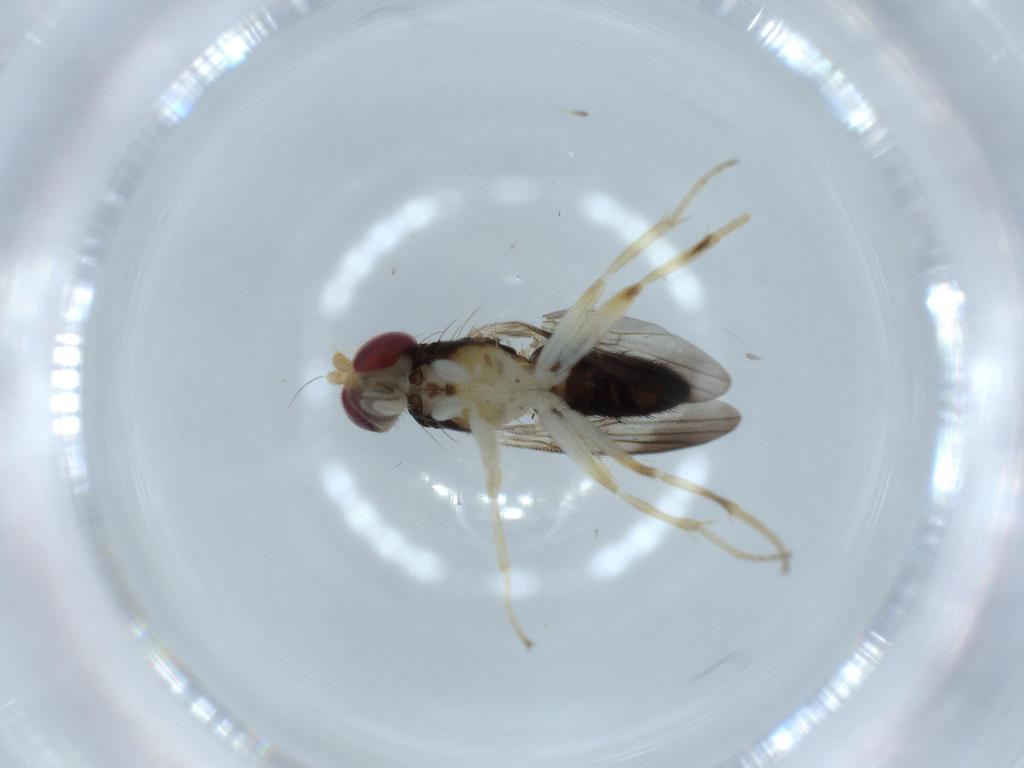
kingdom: Animalia
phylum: Arthropoda
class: Insecta
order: Diptera
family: Clusiidae
